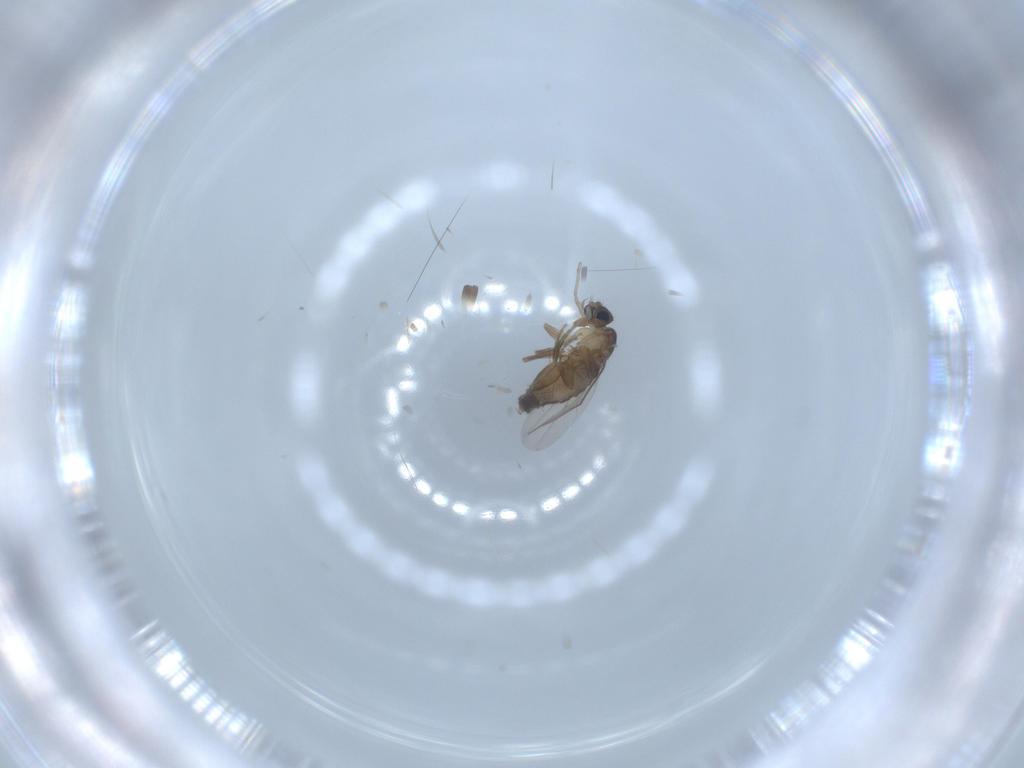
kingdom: Animalia
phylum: Arthropoda
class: Insecta
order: Diptera
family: Phoridae
